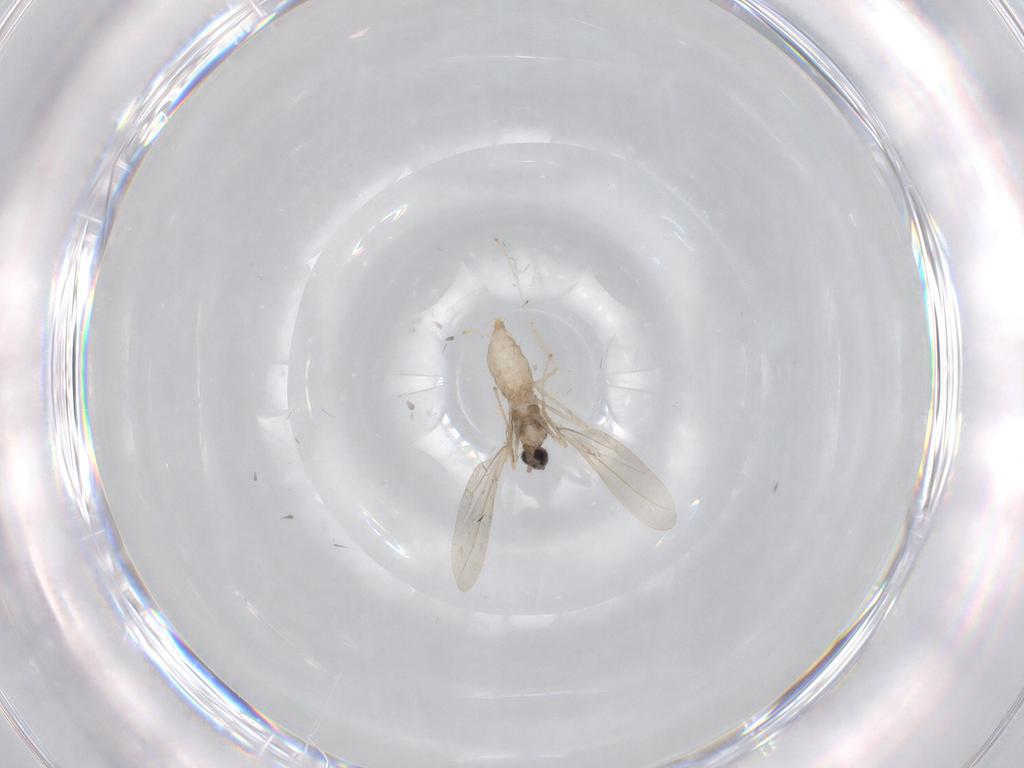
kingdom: Animalia
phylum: Arthropoda
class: Insecta
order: Diptera
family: Cecidomyiidae
